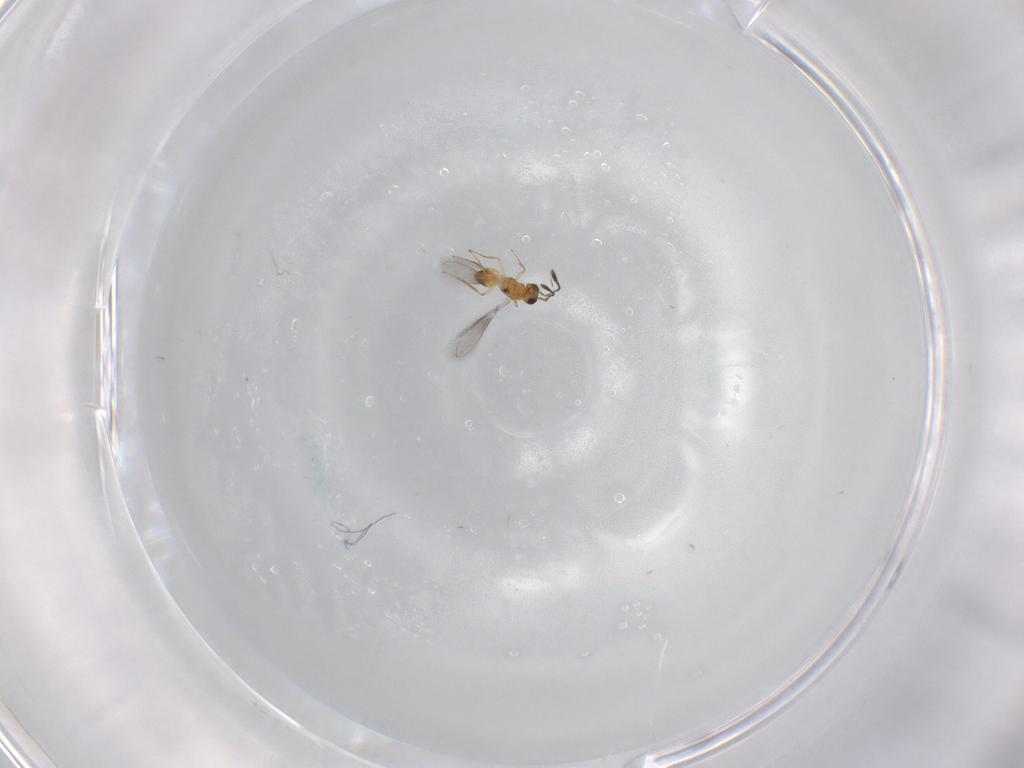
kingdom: Animalia
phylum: Arthropoda
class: Insecta
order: Hymenoptera
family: Mymaridae
